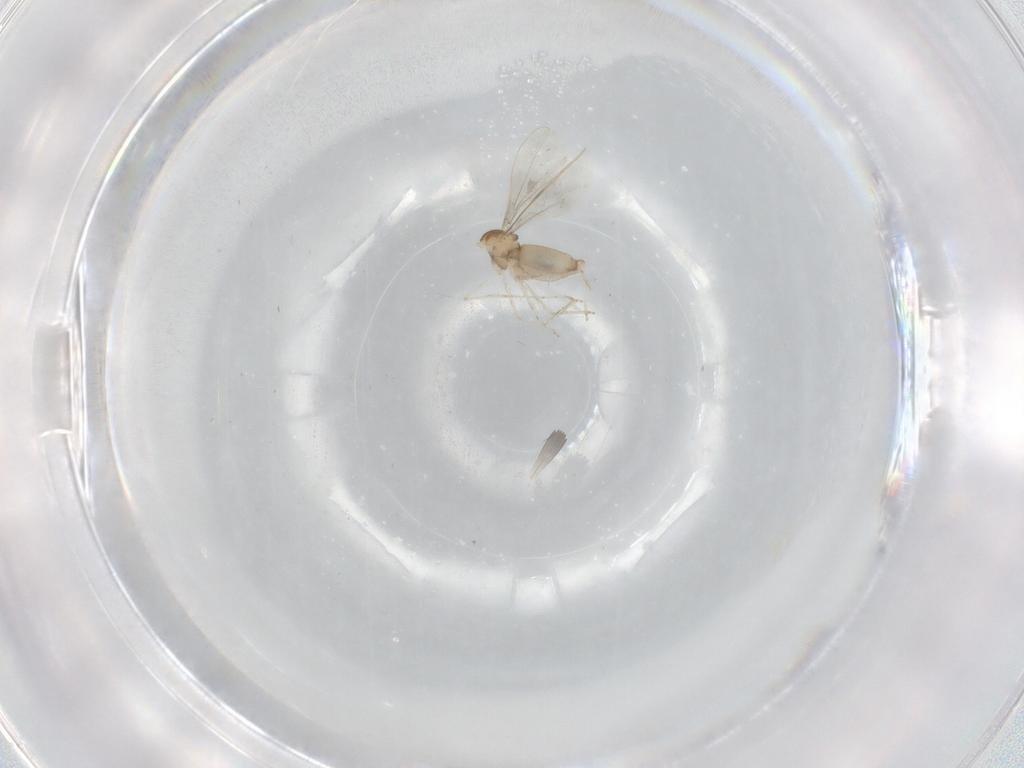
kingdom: Animalia
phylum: Arthropoda
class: Insecta
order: Diptera
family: Cecidomyiidae
